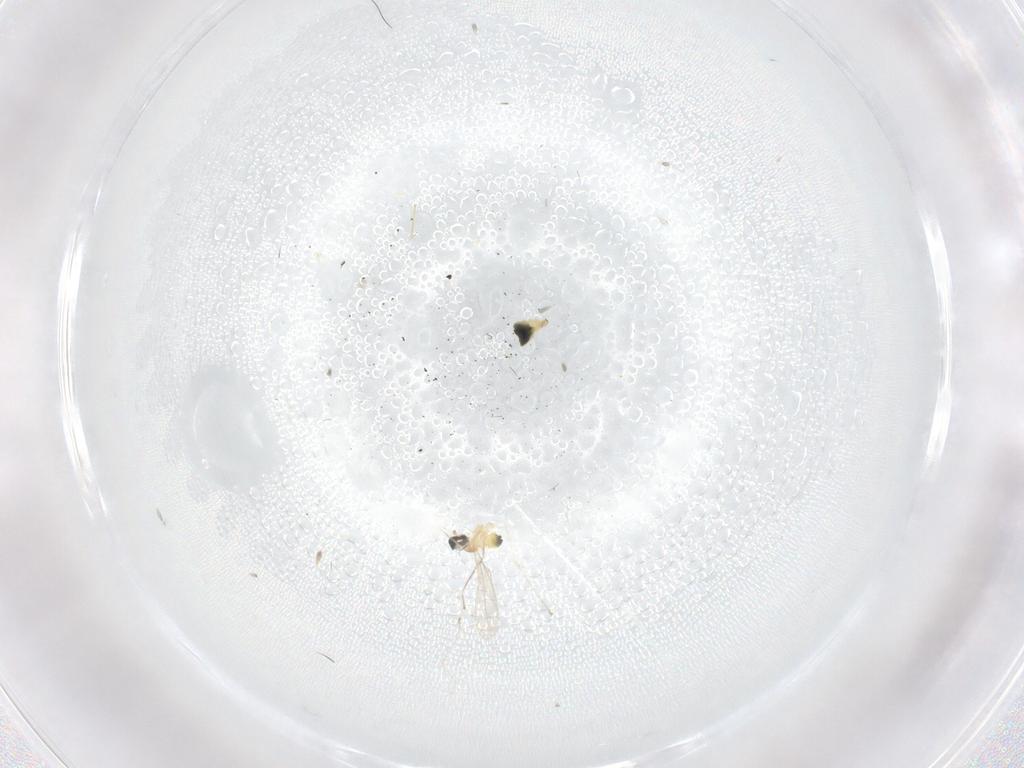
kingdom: Animalia
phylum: Arthropoda
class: Insecta
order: Diptera
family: Cecidomyiidae
